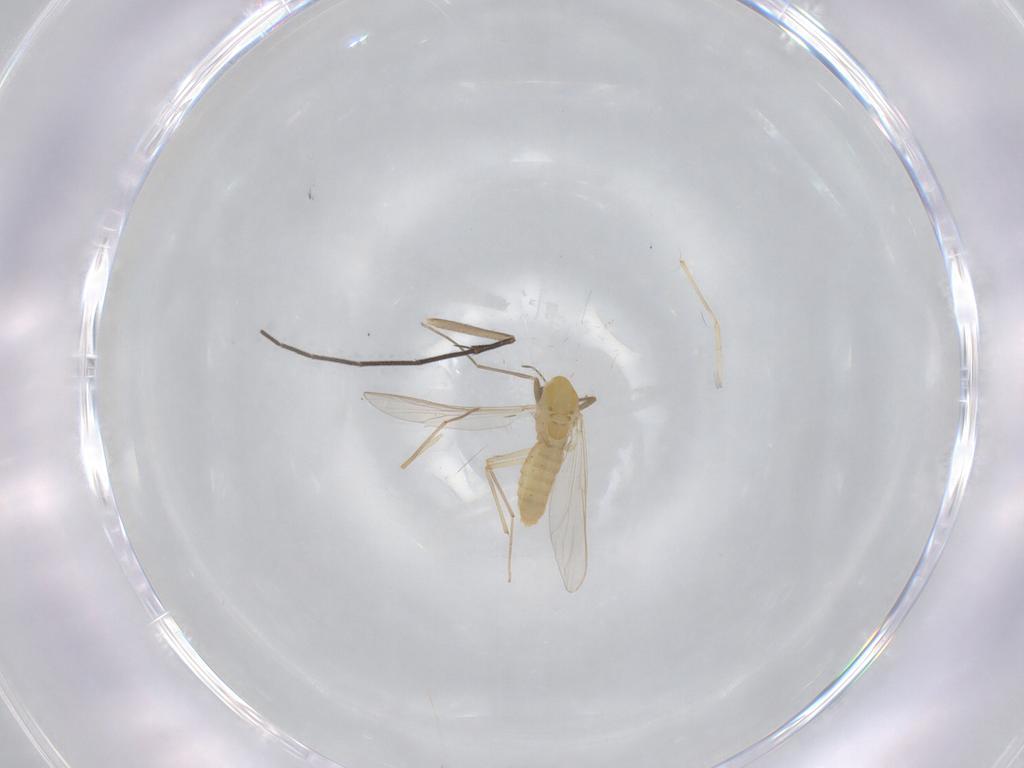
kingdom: Animalia
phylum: Arthropoda
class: Insecta
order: Diptera
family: Chironomidae
